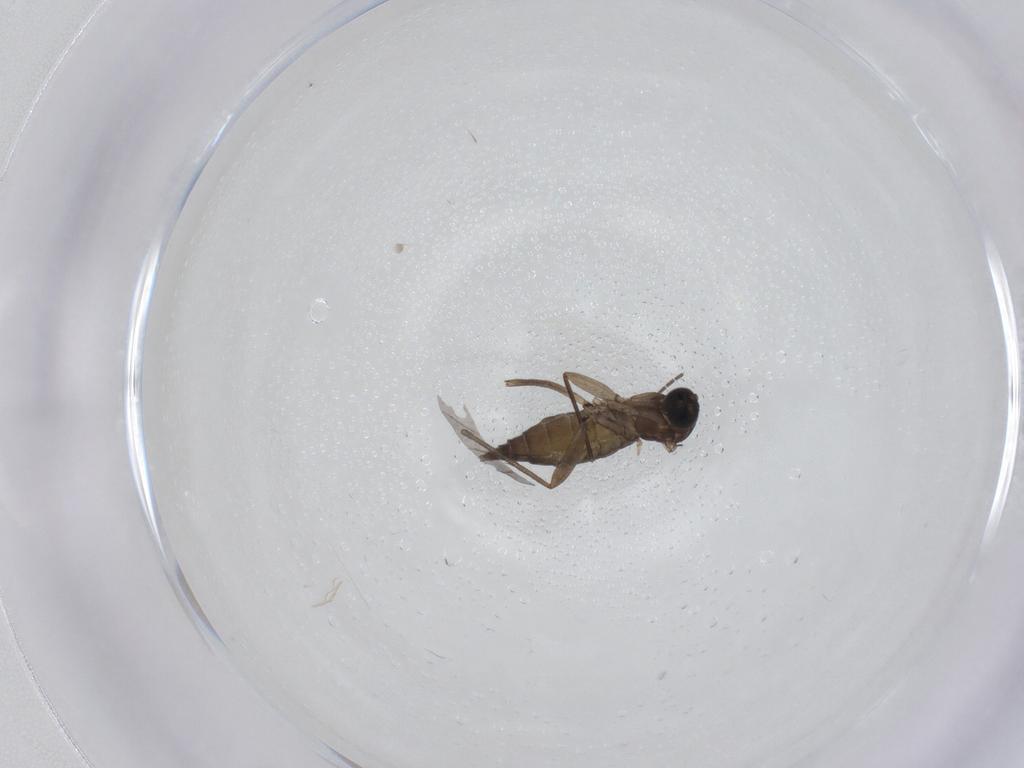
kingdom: Animalia
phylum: Arthropoda
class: Insecta
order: Diptera
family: Sciaridae
